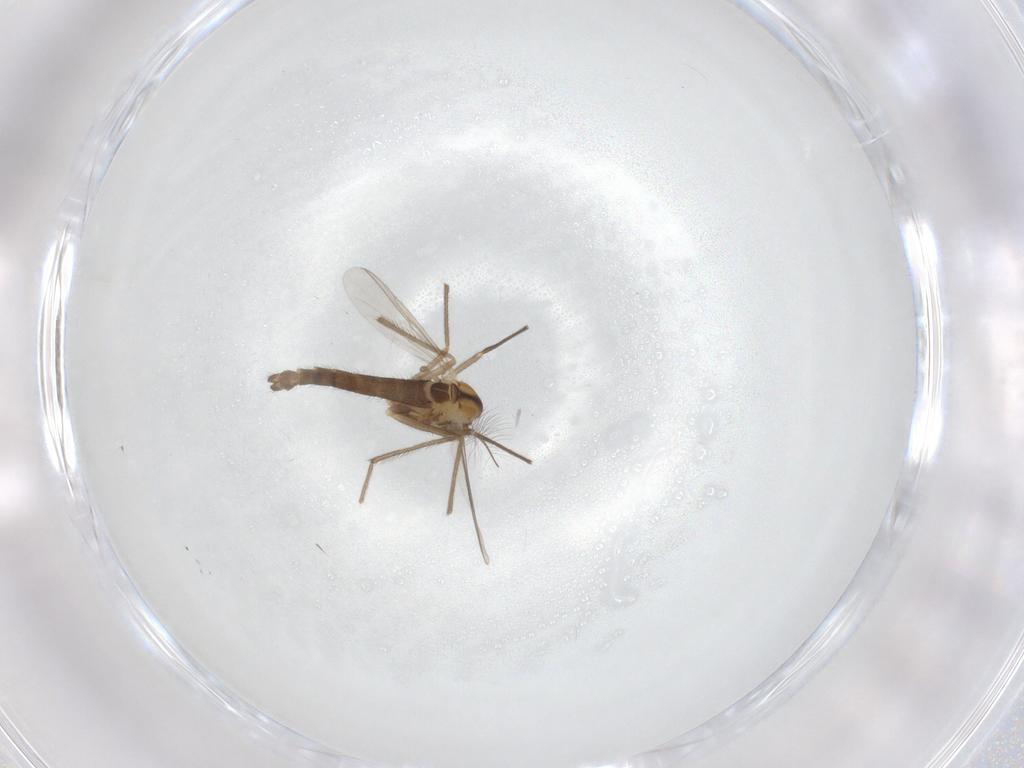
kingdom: Animalia
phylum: Arthropoda
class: Insecta
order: Diptera
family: Chironomidae
